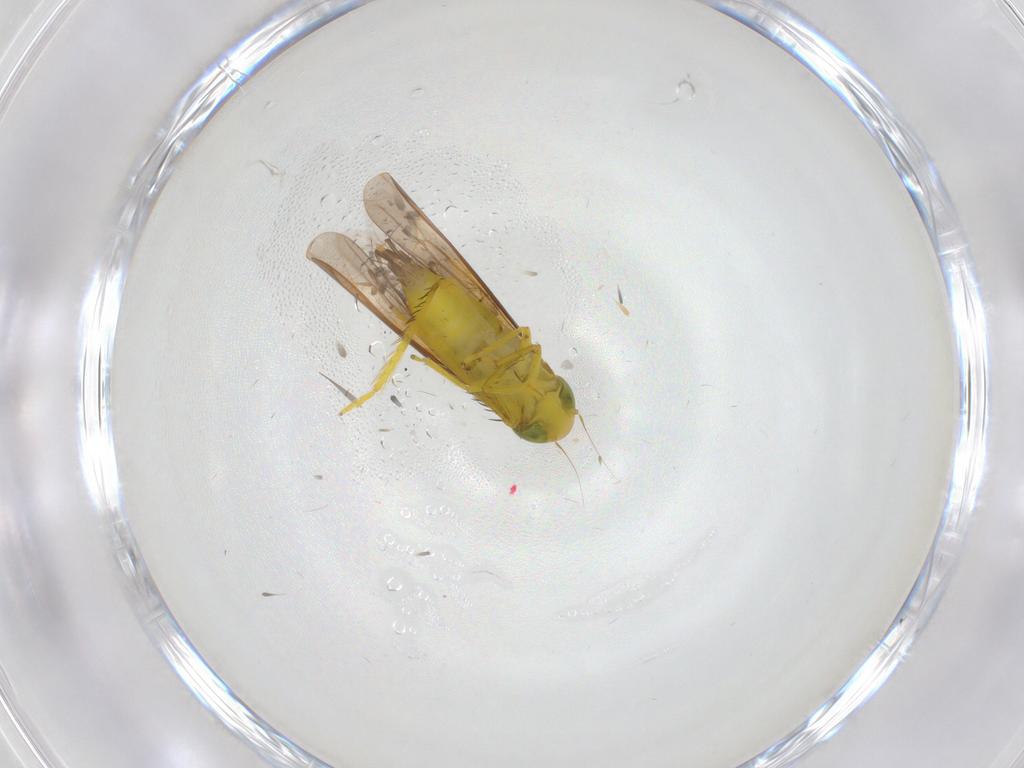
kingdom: Animalia
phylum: Arthropoda
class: Insecta
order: Hemiptera
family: Cicadellidae
